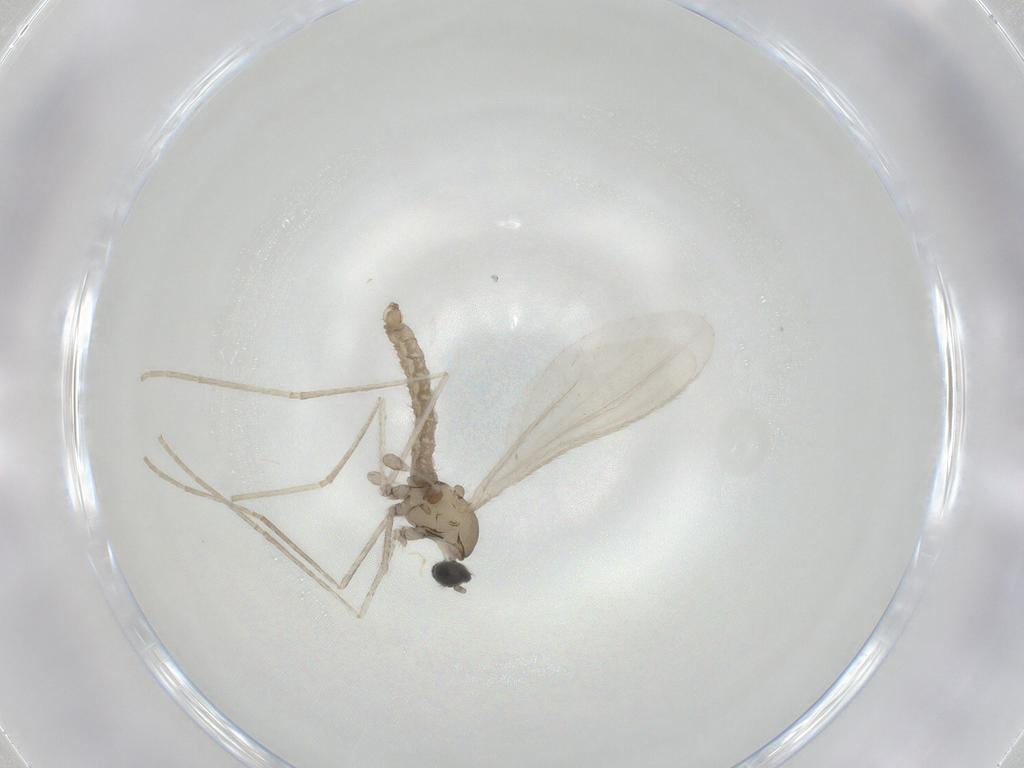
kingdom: Animalia
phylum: Arthropoda
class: Insecta
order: Diptera
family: Cecidomyiidae
